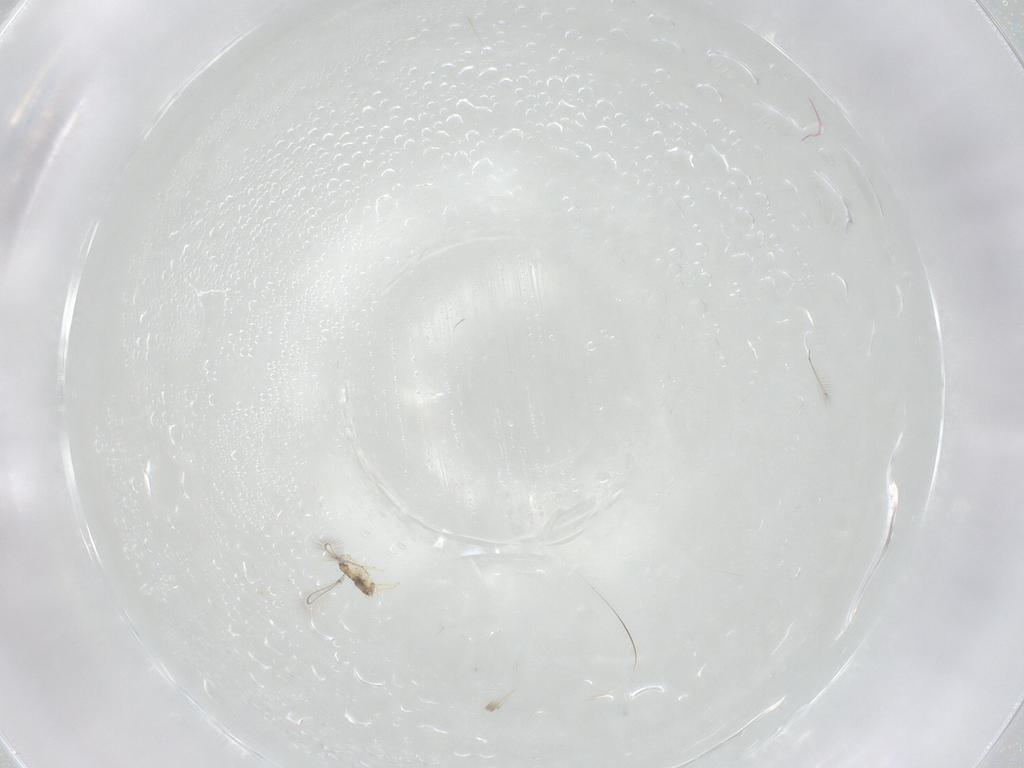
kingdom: Animalia
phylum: Arthropoda
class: Insecta
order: Hymenoptera
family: Mymaridae
